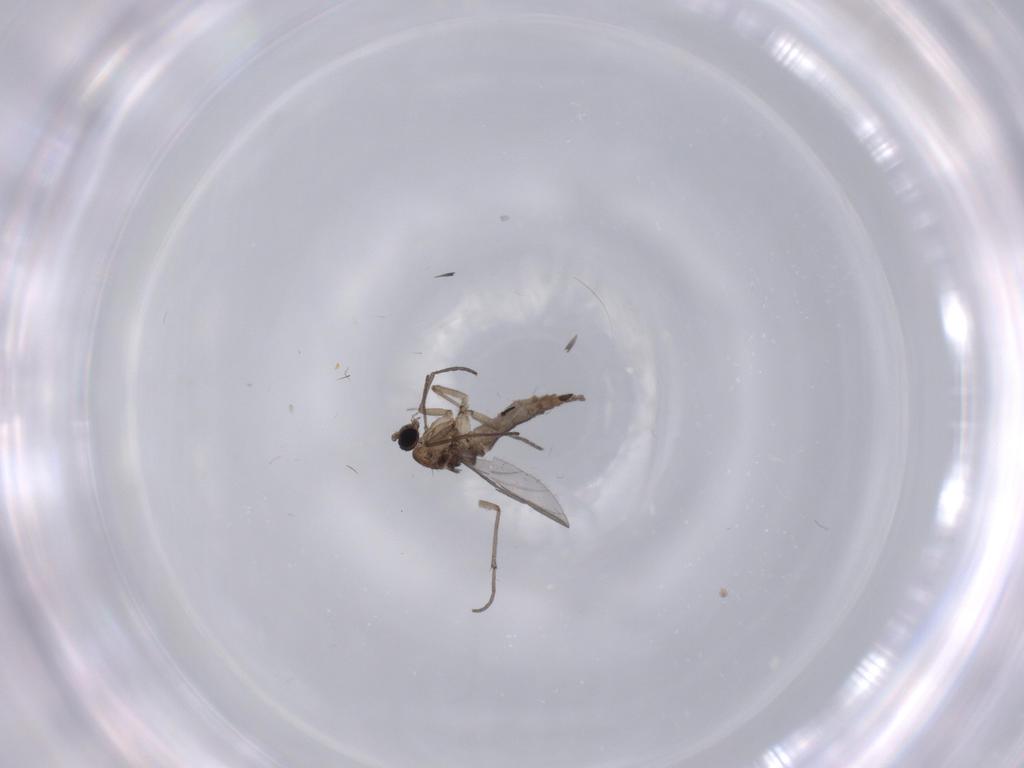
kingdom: Animalia
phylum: Arthropoda
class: Insecta
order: Diptera
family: Sciaridae
